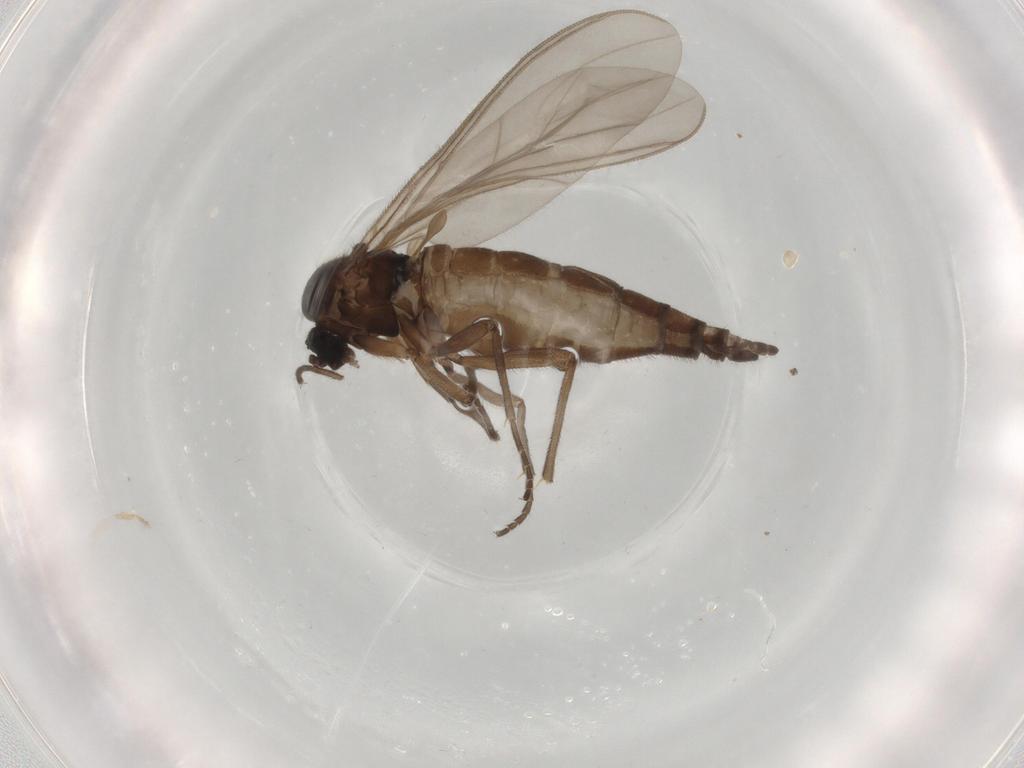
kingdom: Animalia
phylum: Arthropoda
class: Insecta
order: Diptera
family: Sciaridae
